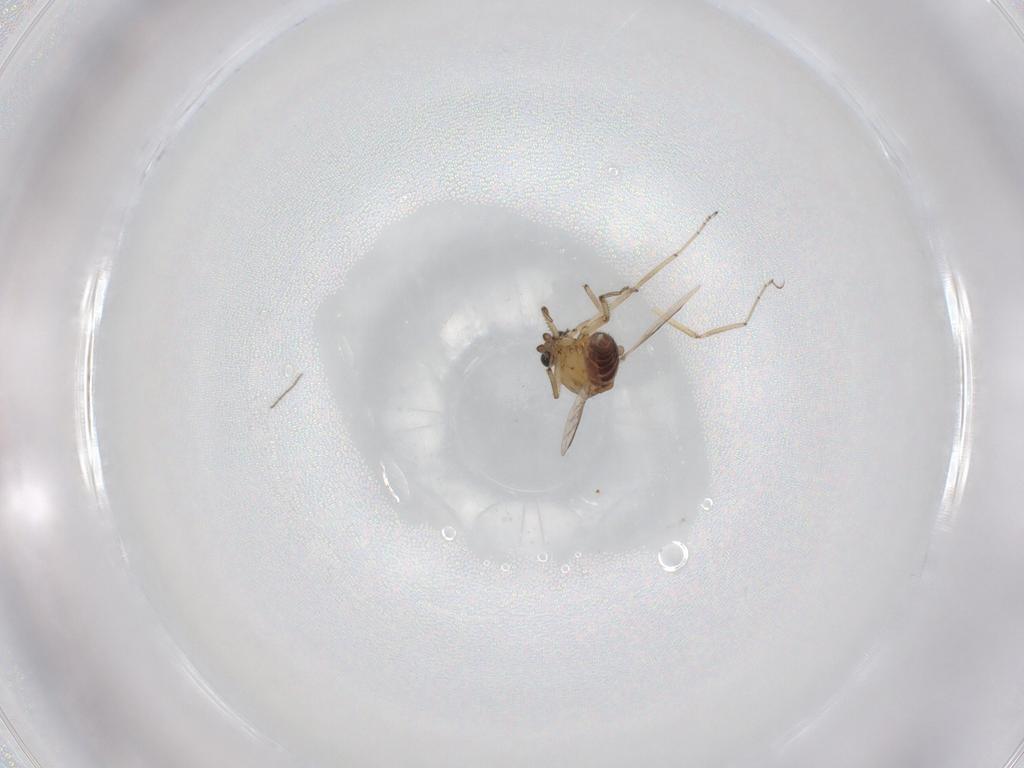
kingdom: Animalia
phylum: Arthropoda
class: Insecta
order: Diptera
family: Ceratopogonidae
